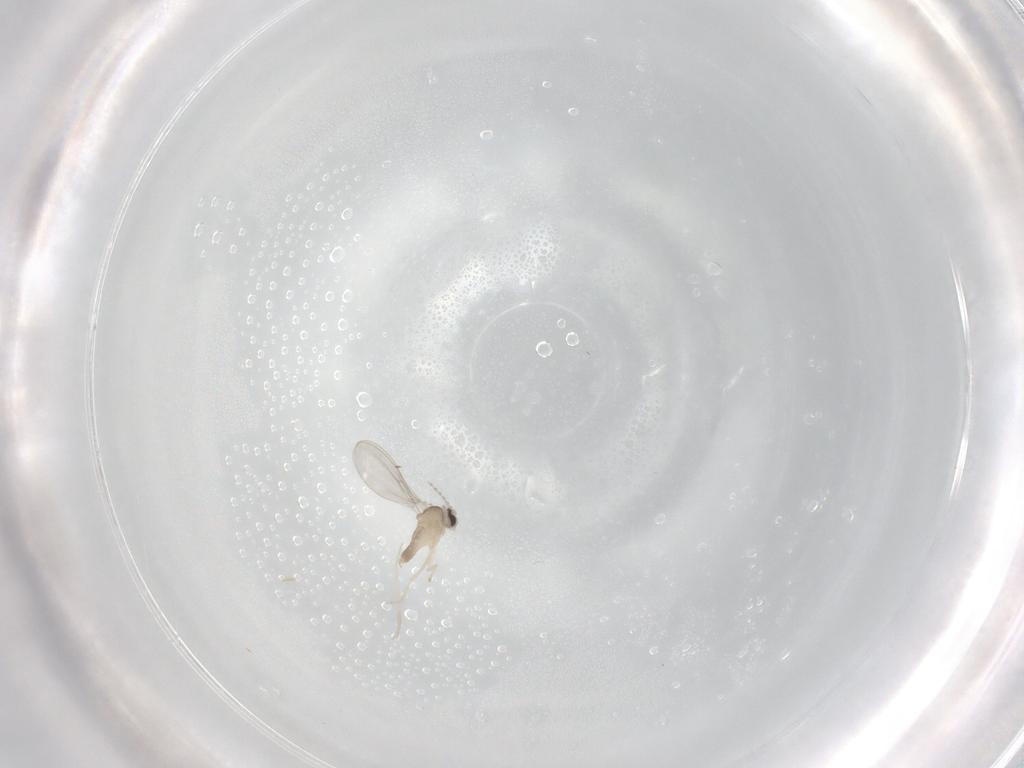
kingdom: Animalia
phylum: Arthropoda
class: Insecta
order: Diptera
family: Cecidomyiidae
